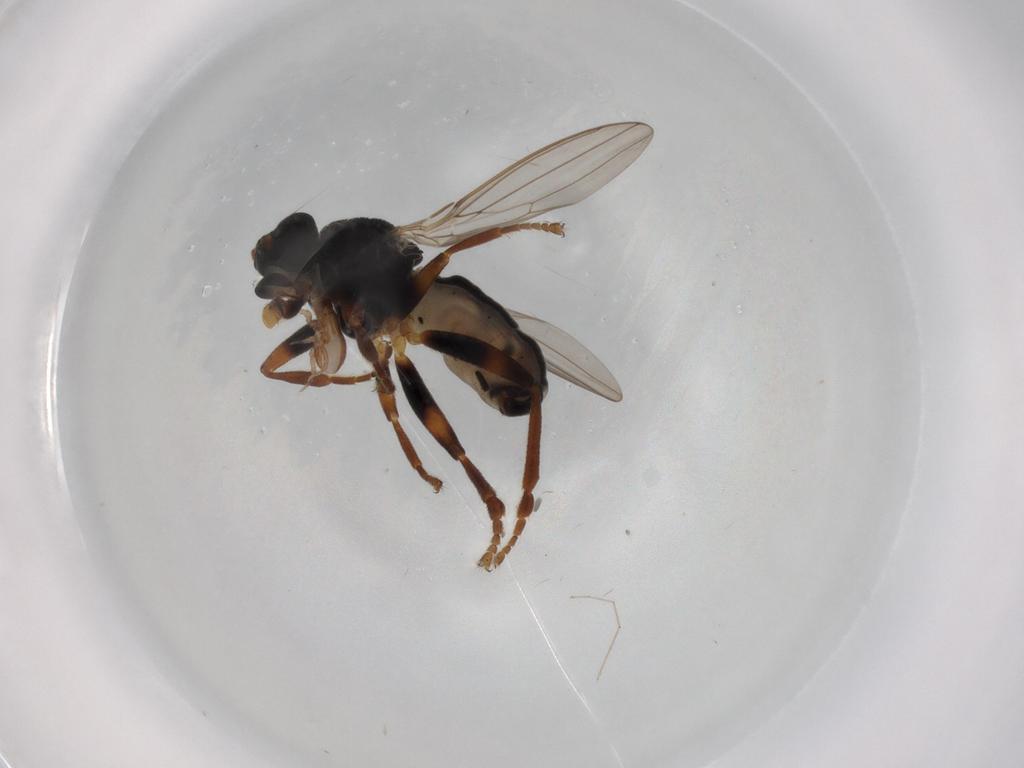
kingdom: Animalia
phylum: Arthropoda
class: Insecta
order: Diptera
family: Sphaeroceridae
